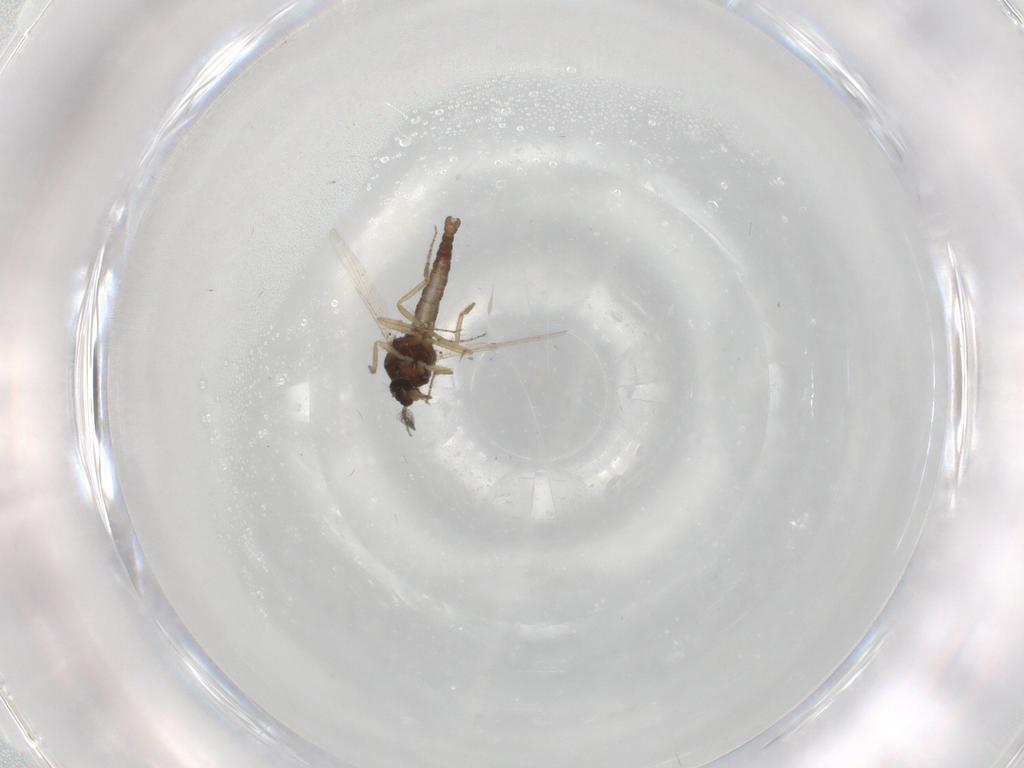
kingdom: Animalia
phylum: Arthropoda
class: Insecta
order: Diptera
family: Ceratopogonidae
